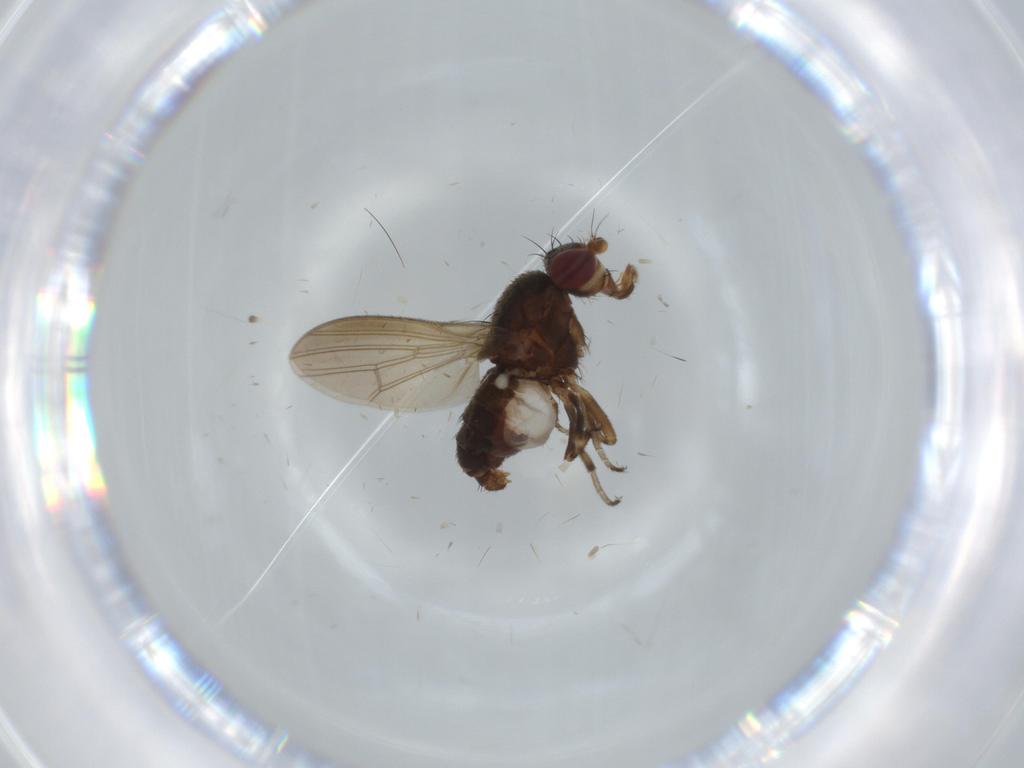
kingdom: Animalia
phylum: Arthropoda
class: Insecta
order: Diptera
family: Heleomyzidae
